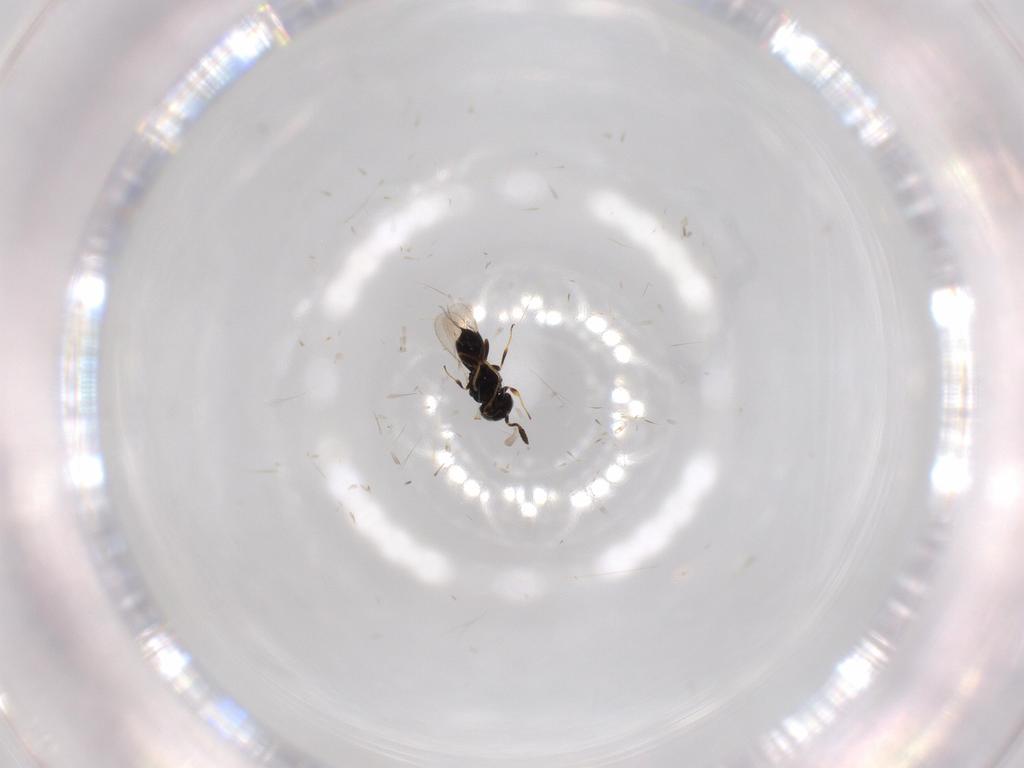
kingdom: Animalia
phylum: Arthropoda
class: Insecta
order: Hymenoptera
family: Scelionidae
